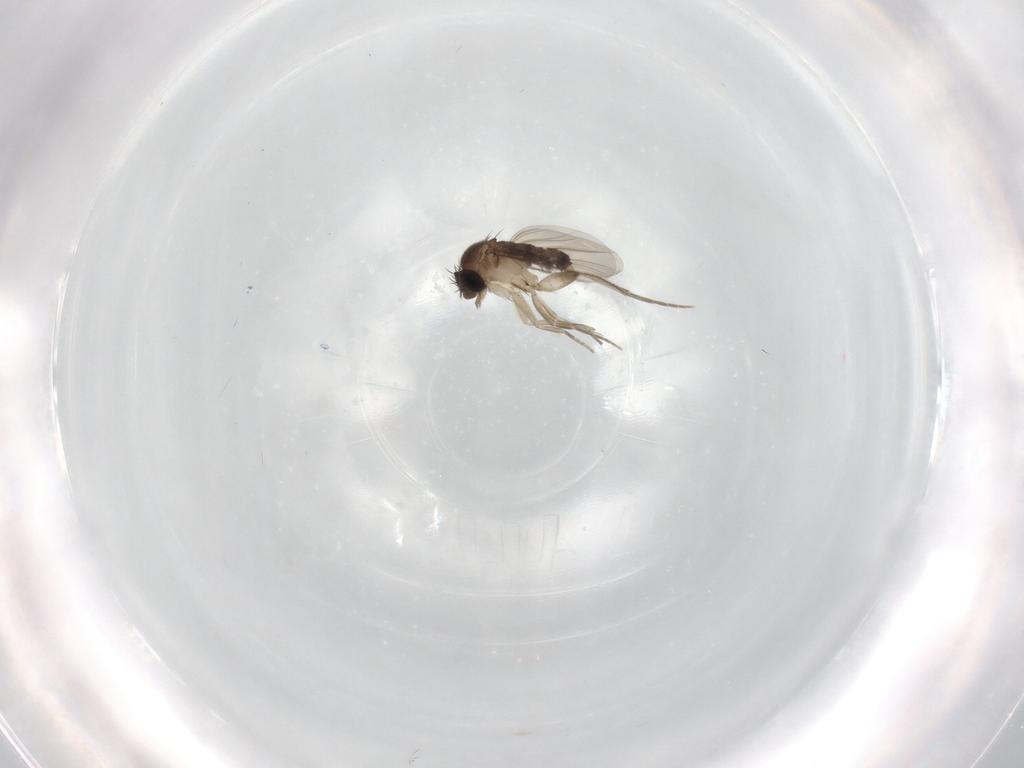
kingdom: Animalia
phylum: Arthropoda
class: Insecta
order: Diptera
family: Phoridae
